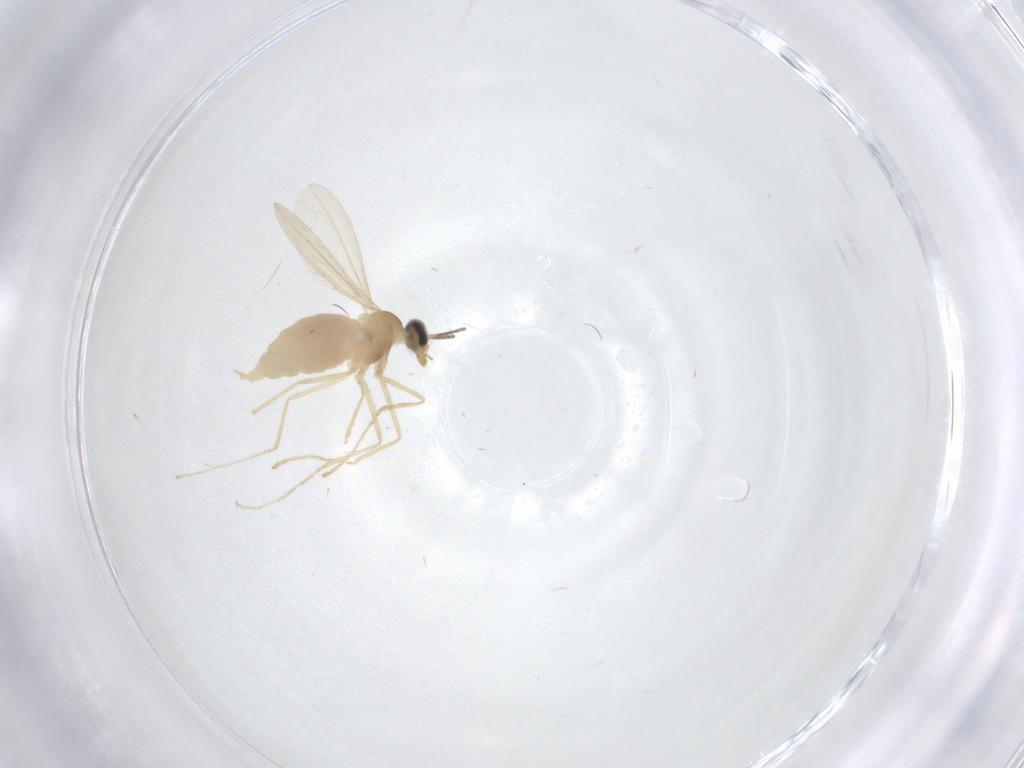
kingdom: Animalia
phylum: Arthropoda
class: Insecta
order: Diptera
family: Cecidomyiidae
